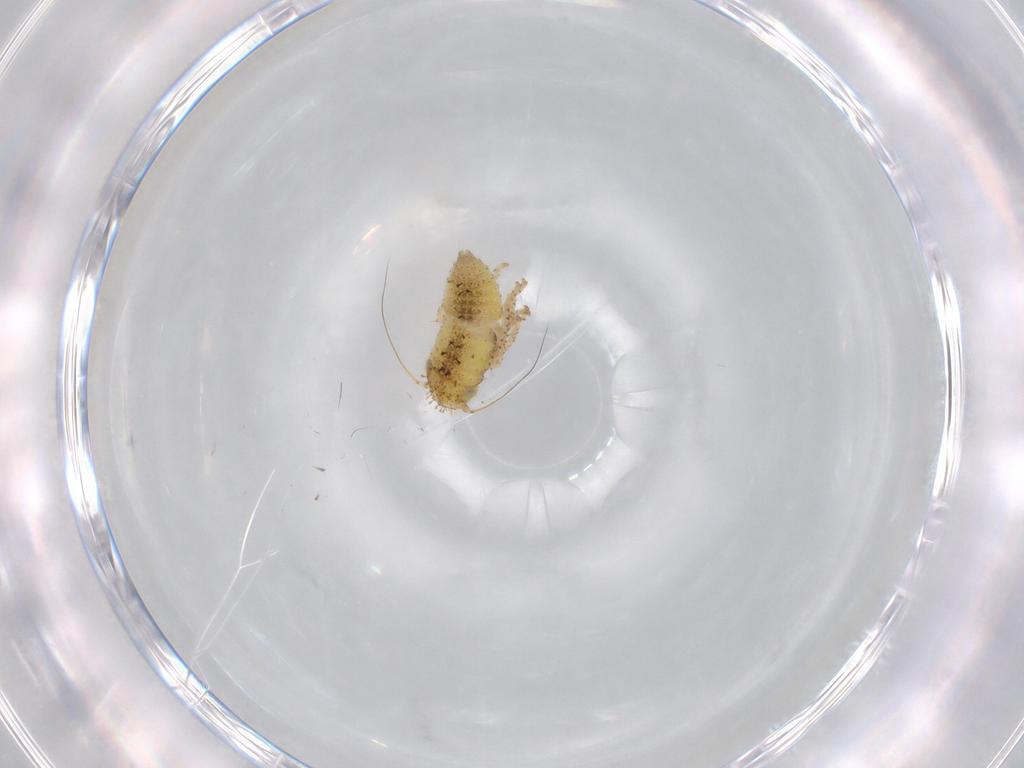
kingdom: Animalia
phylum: Arthropoda
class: Insecta
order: Hemiptera
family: Cicadellidae
